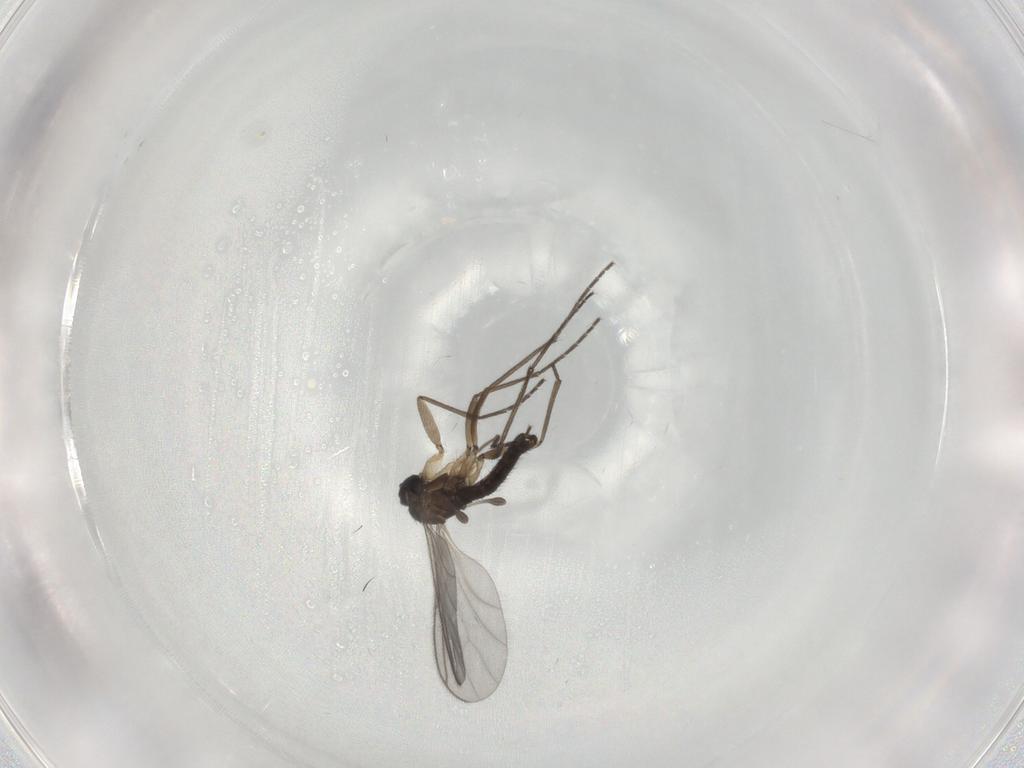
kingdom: Animalia
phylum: Arthropoda
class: Insecta
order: Diptera
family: Sciaridae
